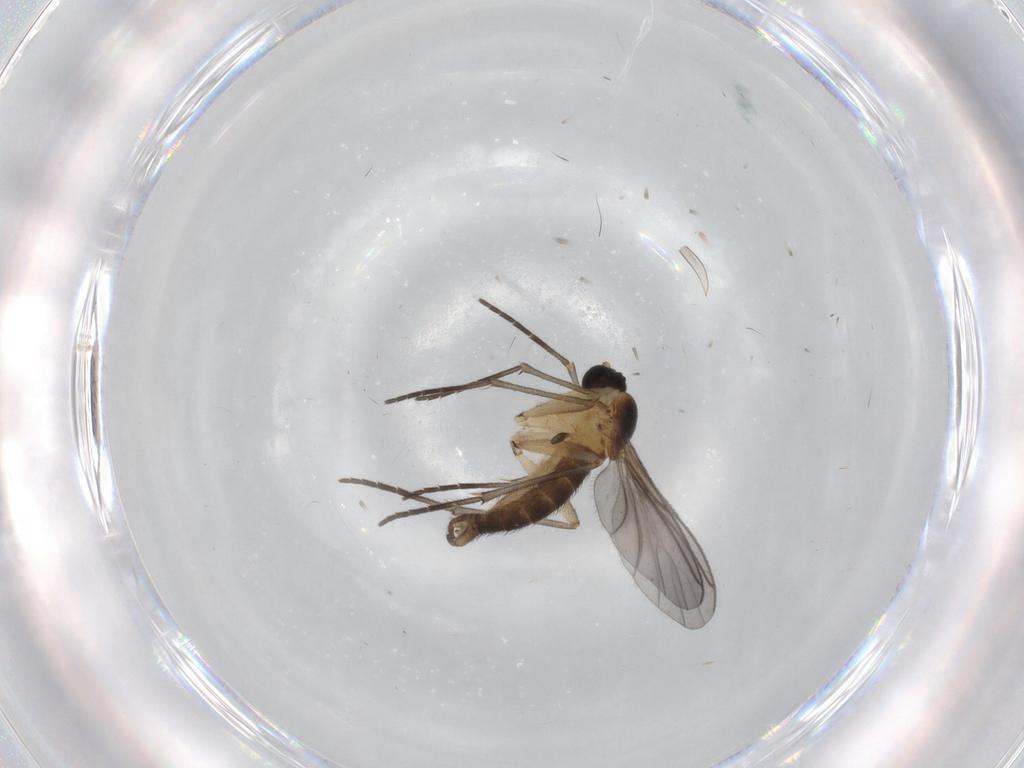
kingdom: Animalia
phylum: Arthropoda
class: Insecta
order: Diptera
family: Sciaridae
